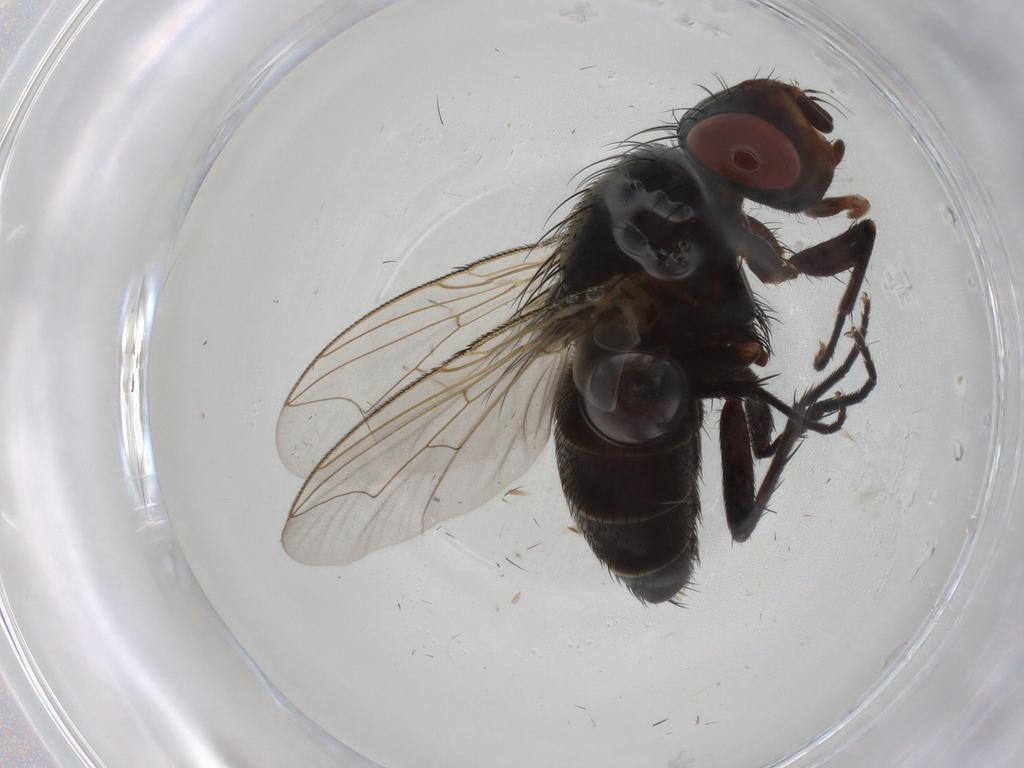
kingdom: Animalia
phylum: Arthropoda
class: Insecta
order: Diptera
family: Sarcophagidae
